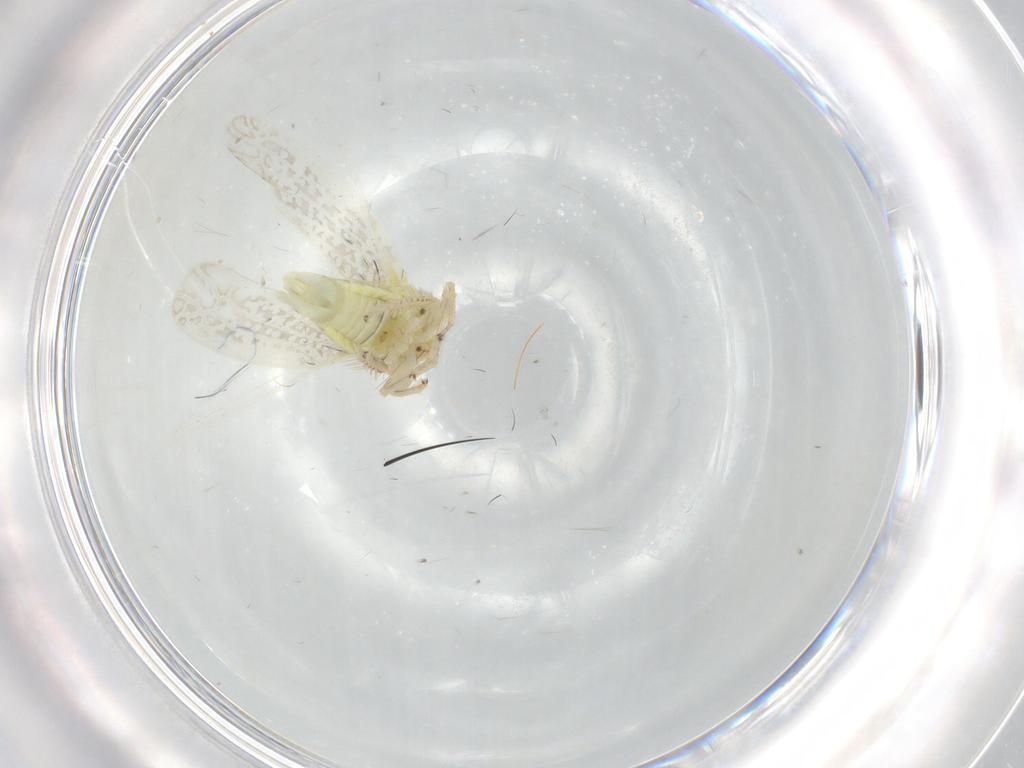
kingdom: Animalia
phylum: Arthropoda
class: Insecta
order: Hemiptera
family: Cicadellidae
